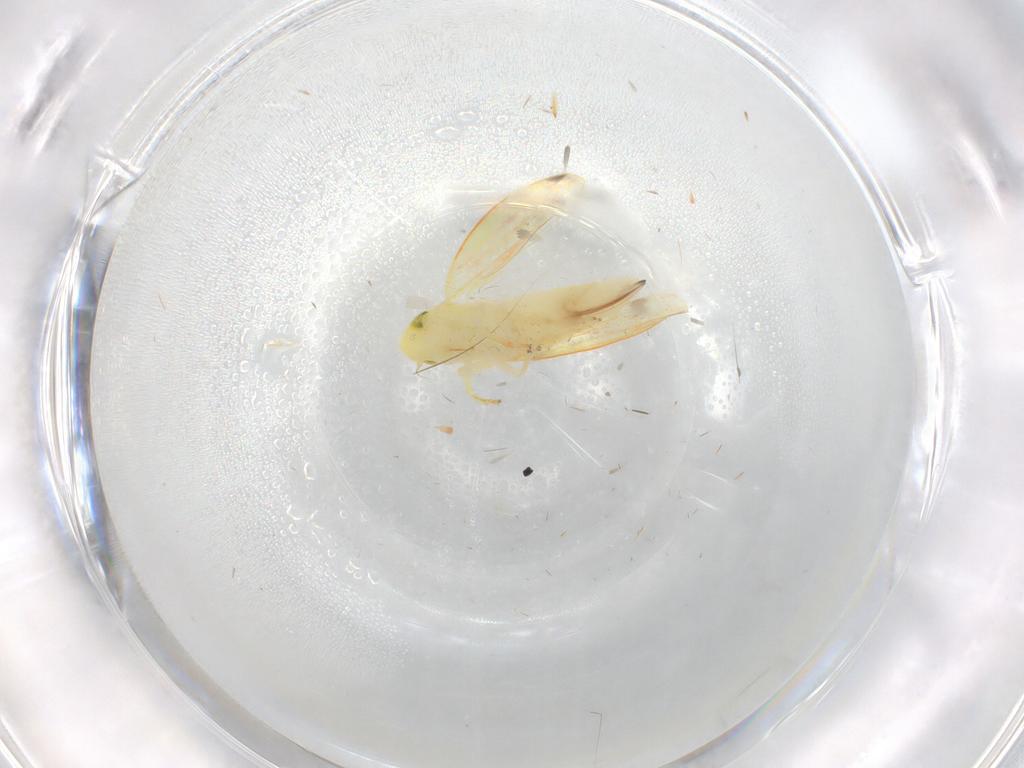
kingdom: Animalia
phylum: Arthropoda
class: Insecta
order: Hemiptera
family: Cicadellidae
